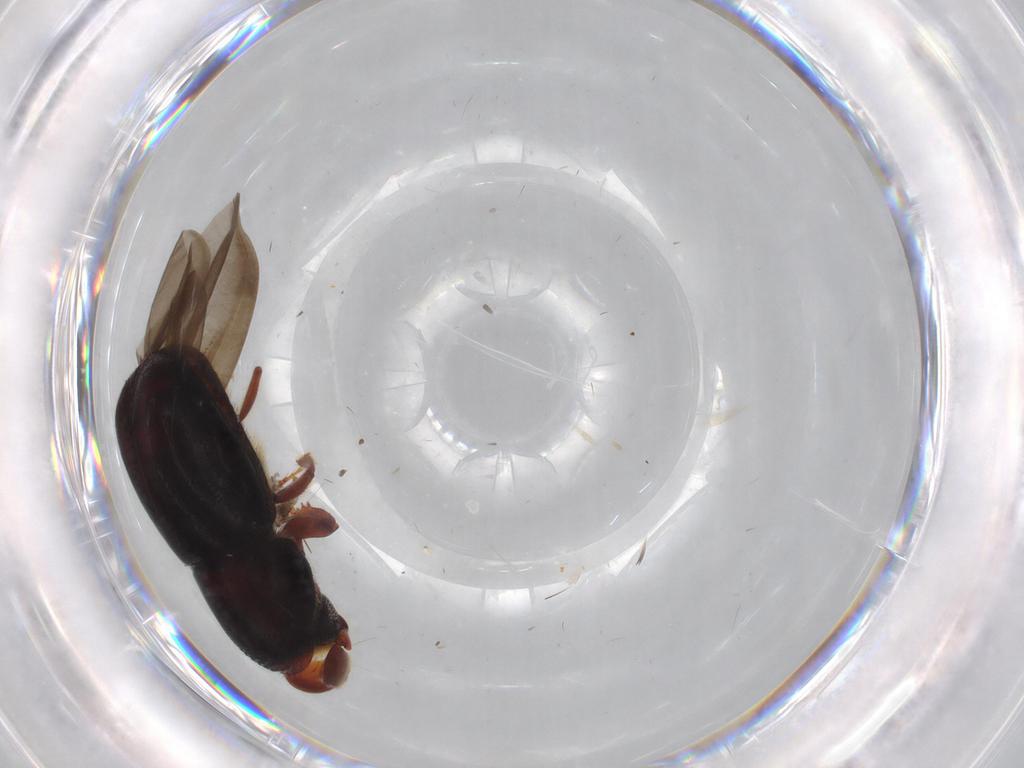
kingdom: Animalia
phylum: Arthropoda
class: Insecta
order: Coleoptera
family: Curculionidae
